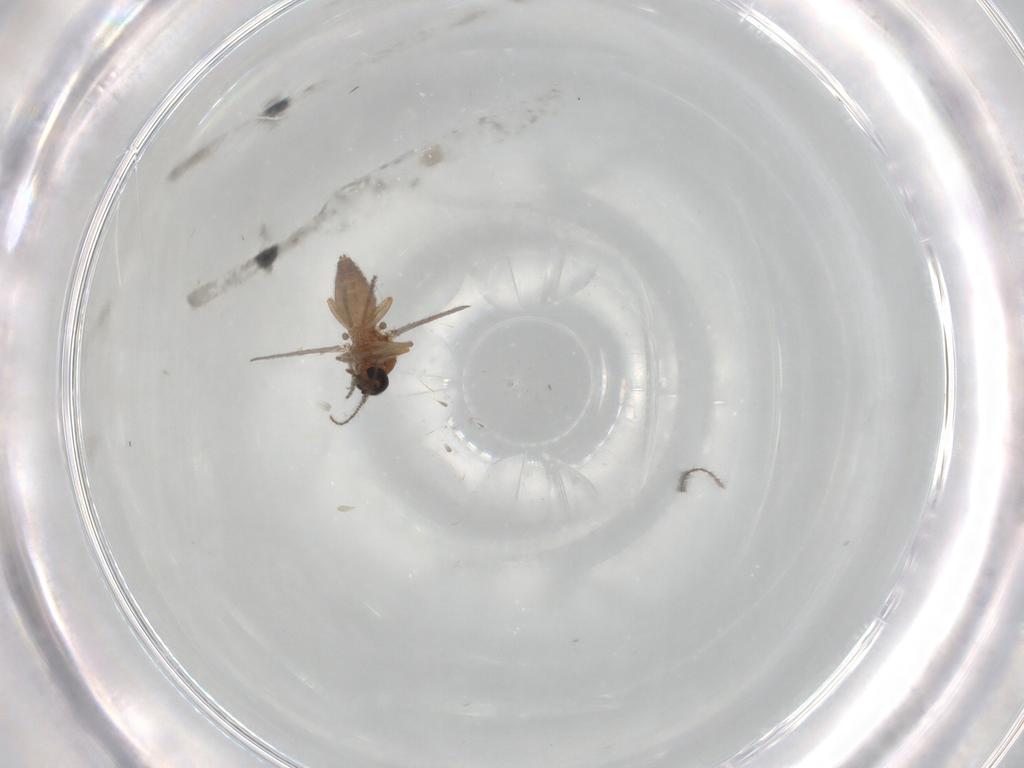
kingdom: Animalia
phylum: Arthropoda
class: Insecta
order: Diptera
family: Ceratopogonidae
